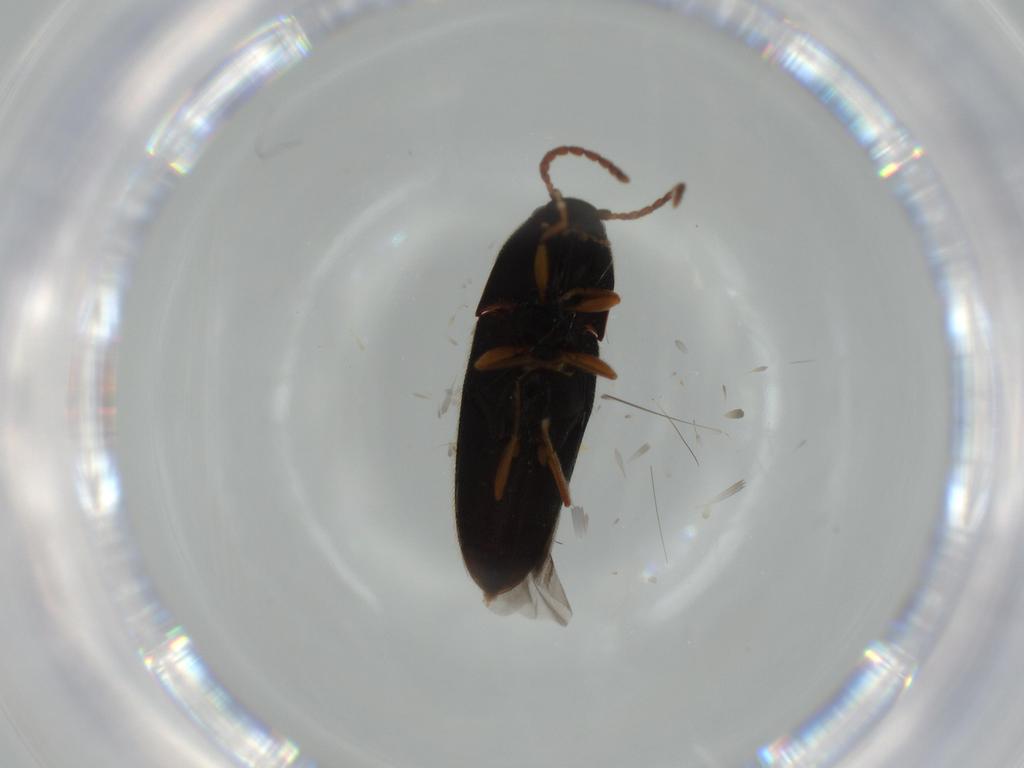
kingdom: Animalia
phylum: Arthropoda
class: Insecta
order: Coleoptera
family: Elateridae
